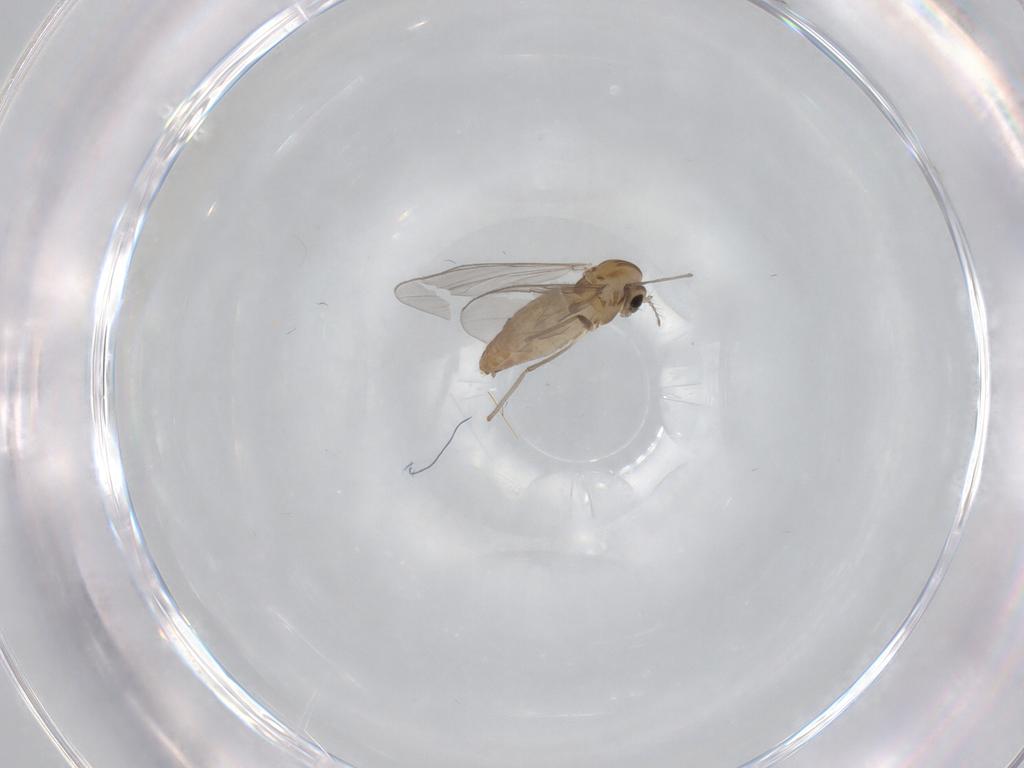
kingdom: Animalia
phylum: Arthropoda
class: Insecta
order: Diptera
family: Chironomidae
